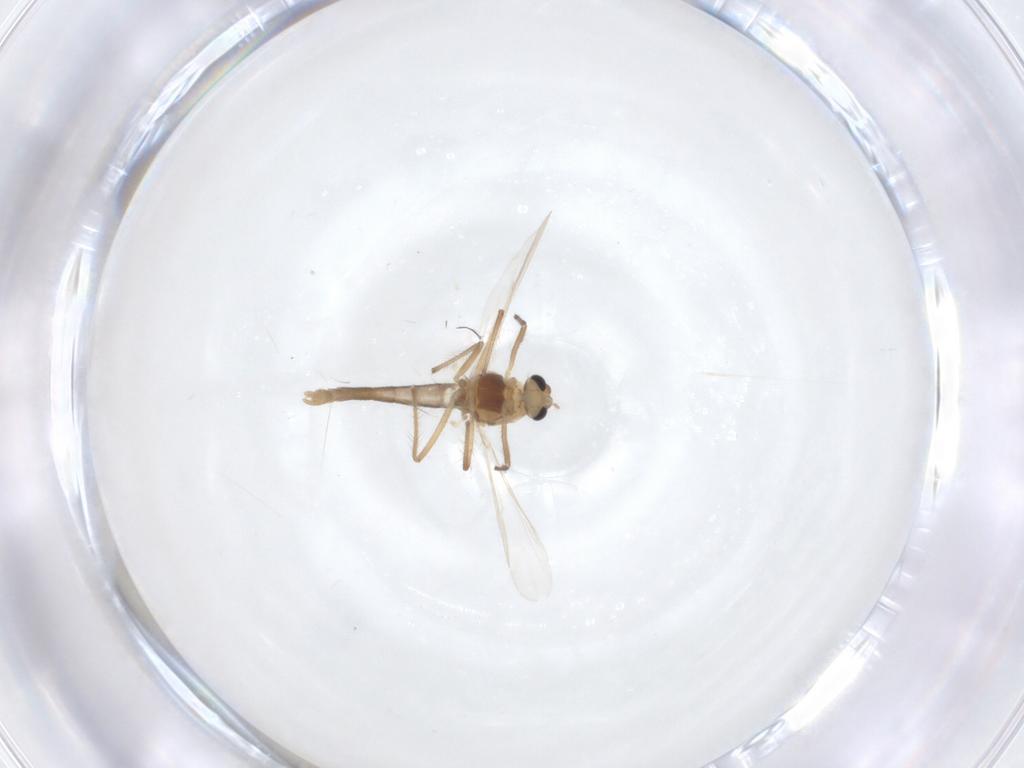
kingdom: Animalia
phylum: Arthropoda
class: Insecta
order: Diptera
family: Chironomidae
